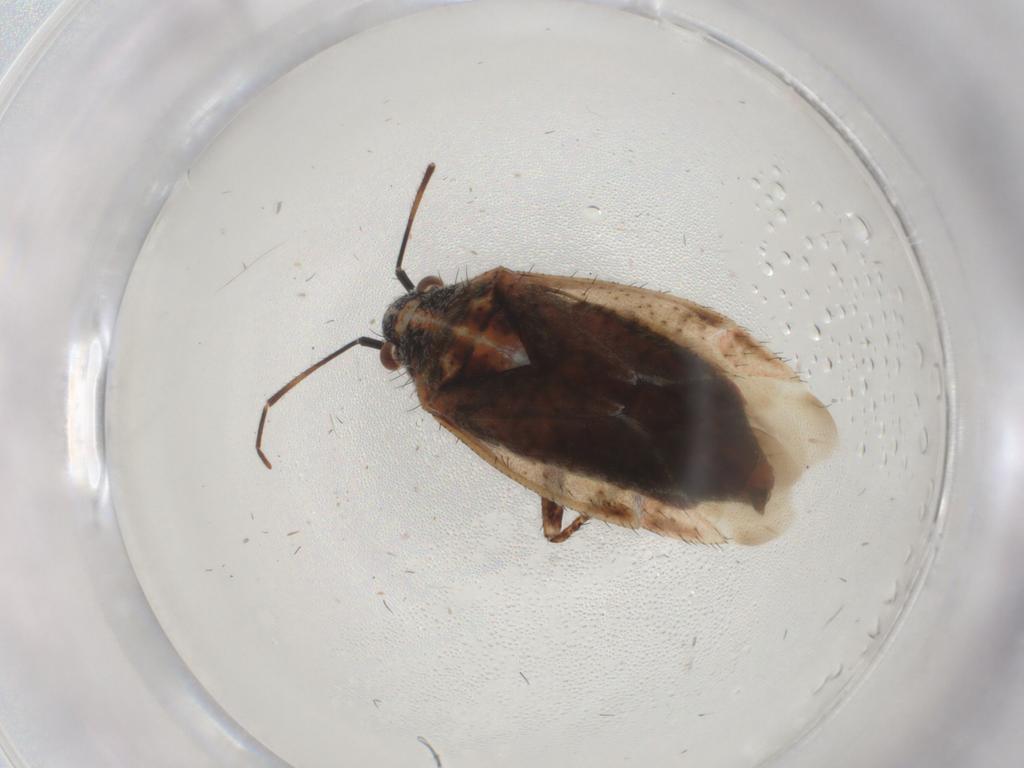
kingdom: Animalia
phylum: Arthropoda
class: Insecta
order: Hemiptera
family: Miridae
